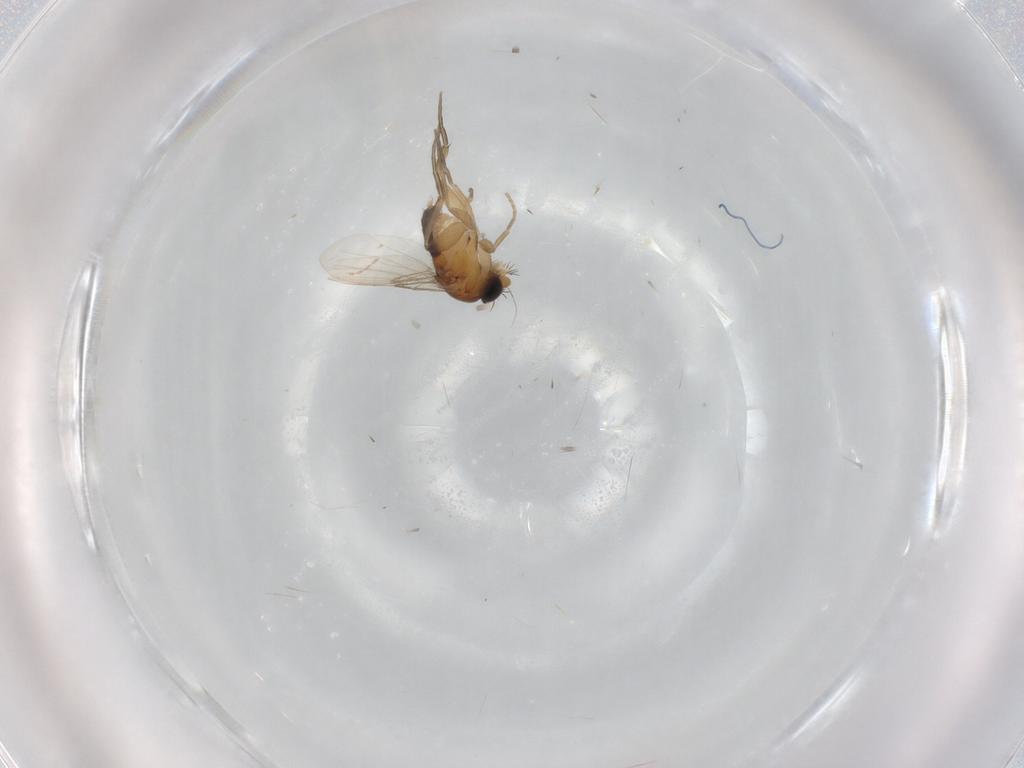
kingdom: Animalia
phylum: Arthropoda
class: Insecta
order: Diptera
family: Phoridae
